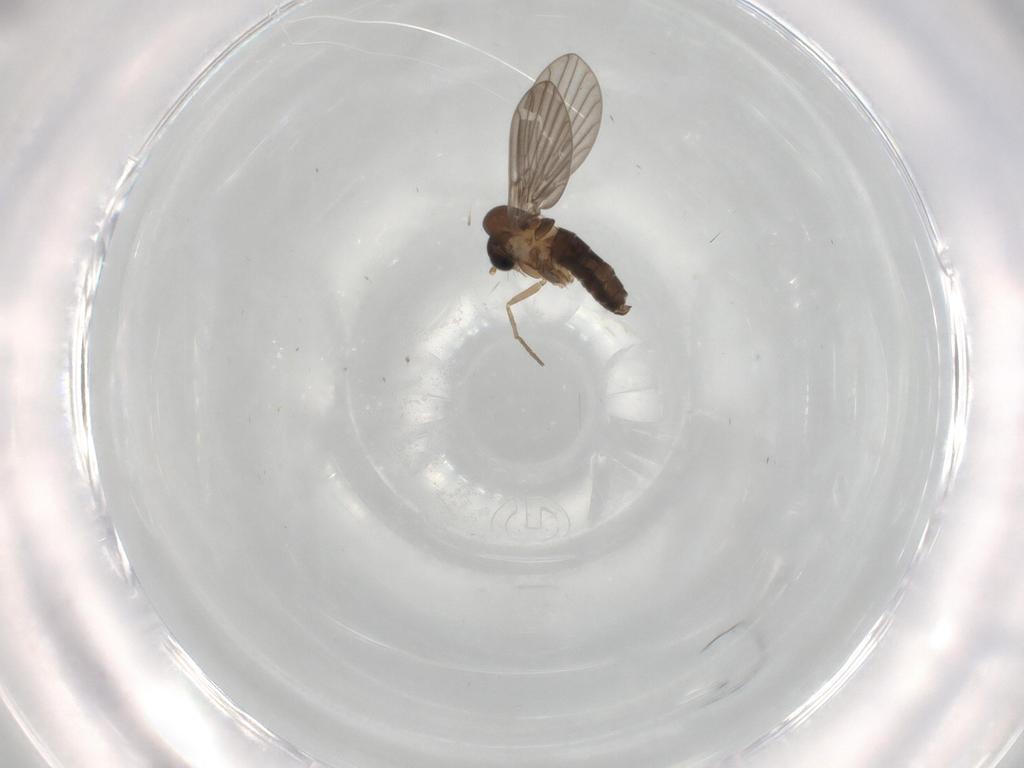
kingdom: Animalia
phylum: Arthropoda
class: Insecta
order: Diptera
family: Psychodidae
